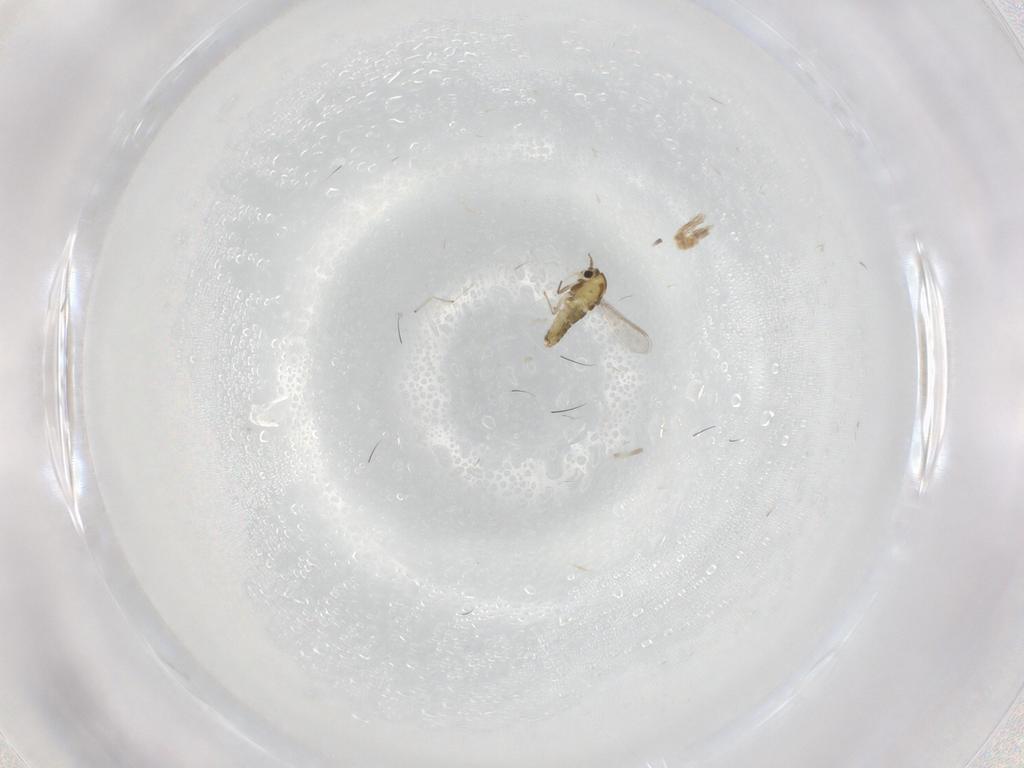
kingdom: Animalia
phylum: Arthropoda
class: Insecta
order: Diptera
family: Chironomidae
